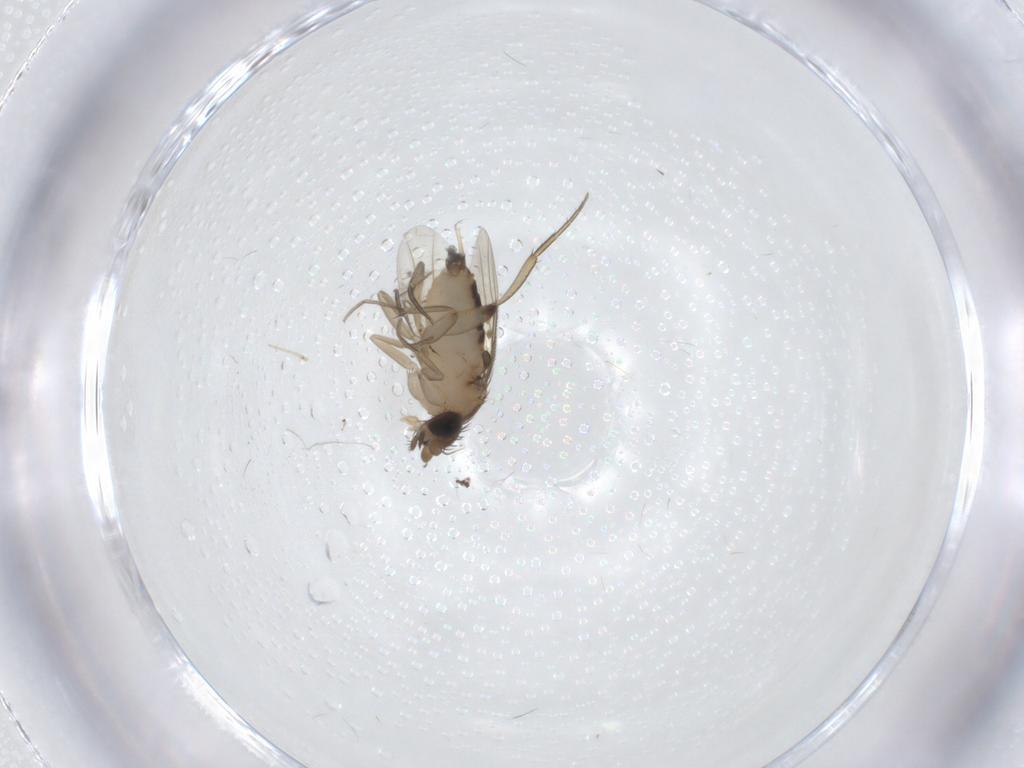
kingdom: Animalia
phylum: Arthropoda
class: Insecta
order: Diptera
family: Phoridae
